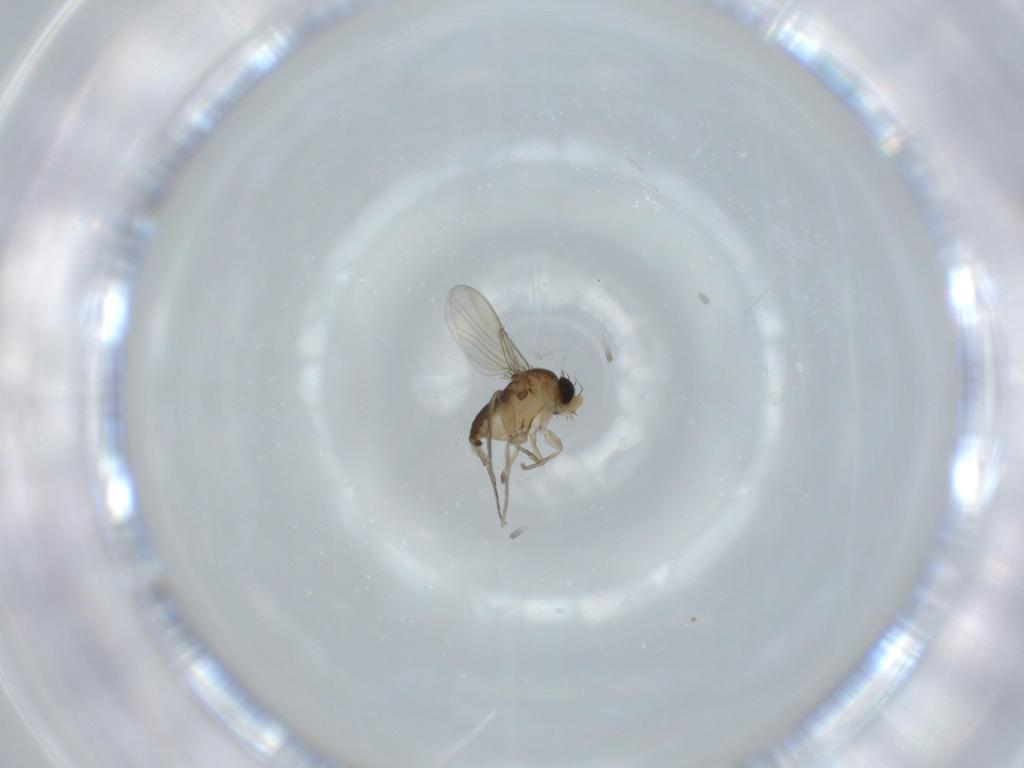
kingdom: Animalia
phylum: Arthropoda
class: Insecta
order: Diptera
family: Phoridae
